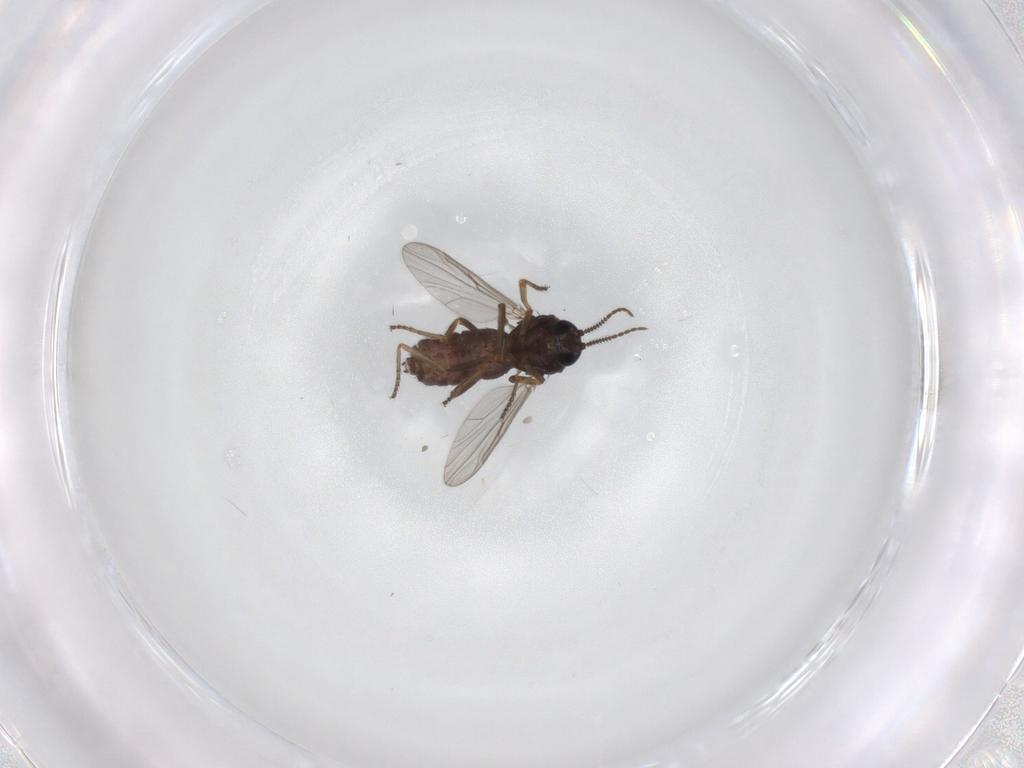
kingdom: Animalia
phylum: Arthropoda
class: Insecta
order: Diptera
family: Ceratopogonidae
